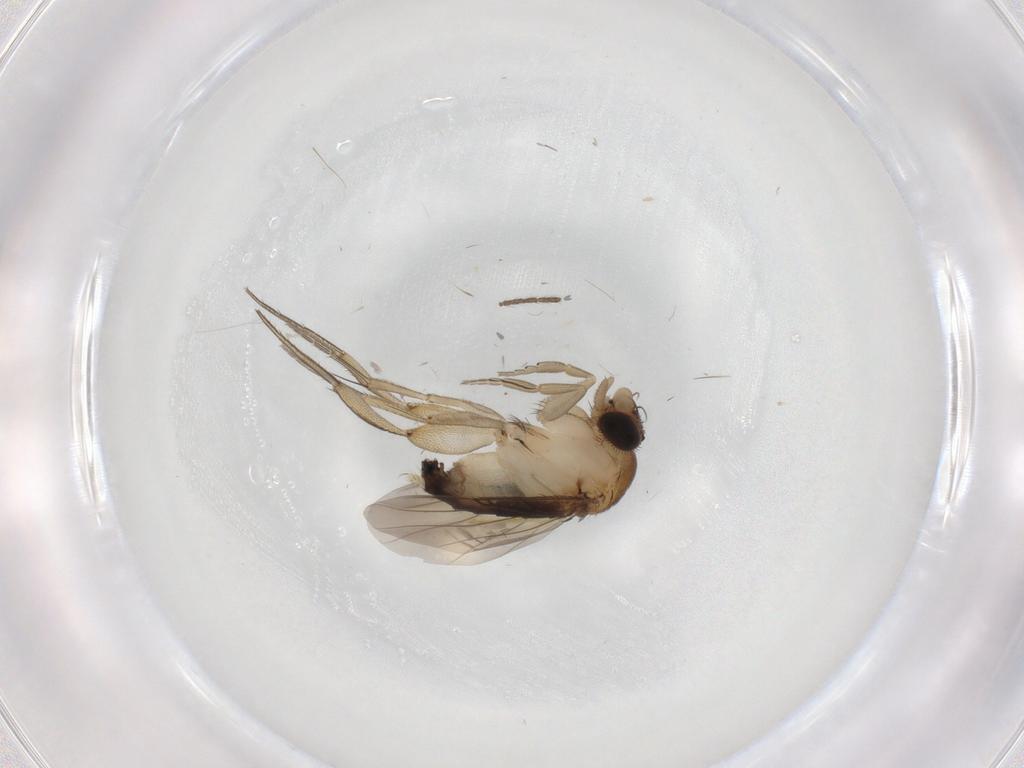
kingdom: Animalia
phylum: Arthropoda
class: Insecta
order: Diptera
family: Phoridae
